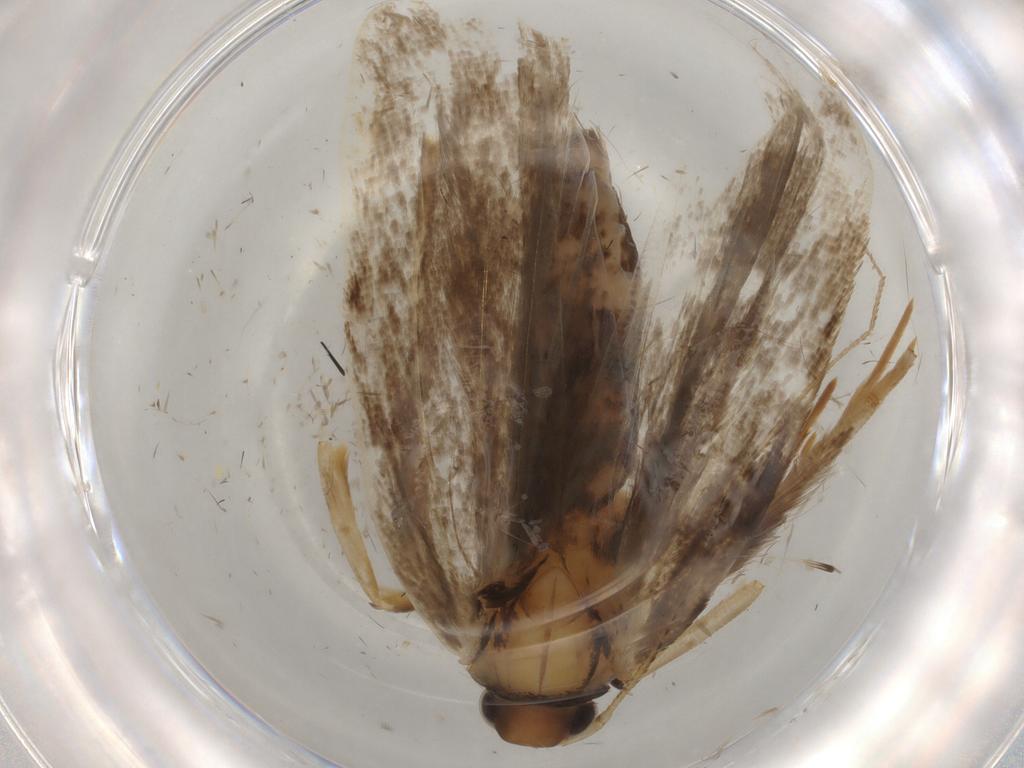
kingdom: Animalia
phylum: Arthropoda
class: Insecta
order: Lepidoptera
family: Gelechiidae
